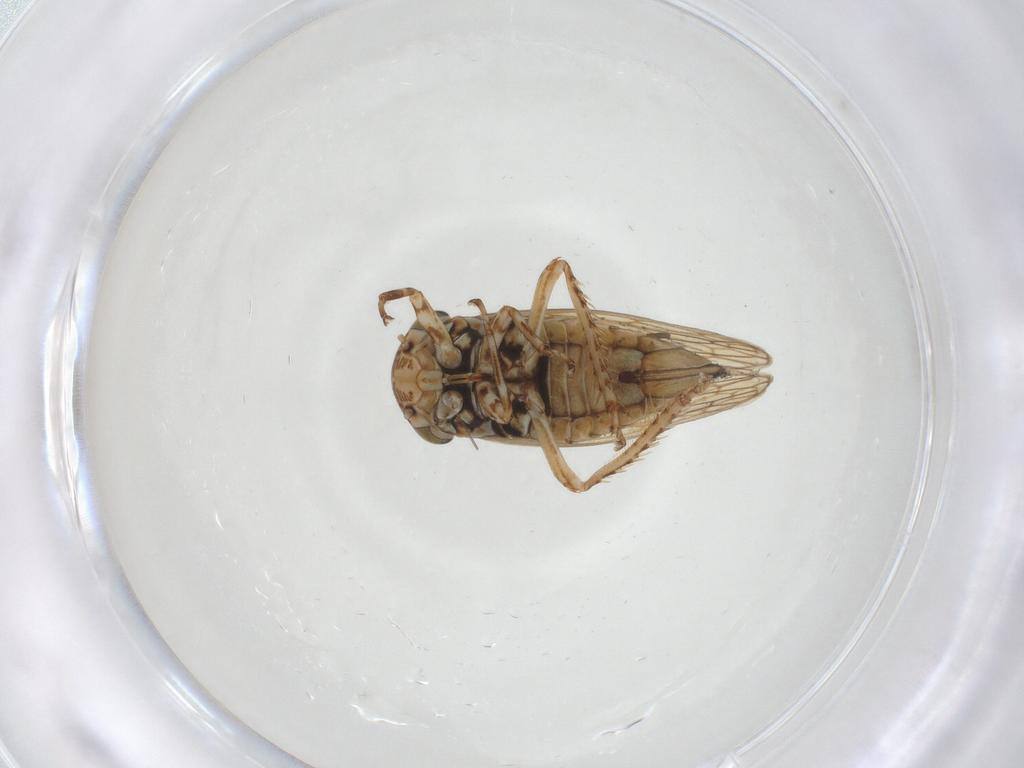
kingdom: Animalia
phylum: Arthropoda
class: Insecta
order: Hemiptera
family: Cicadellidae
